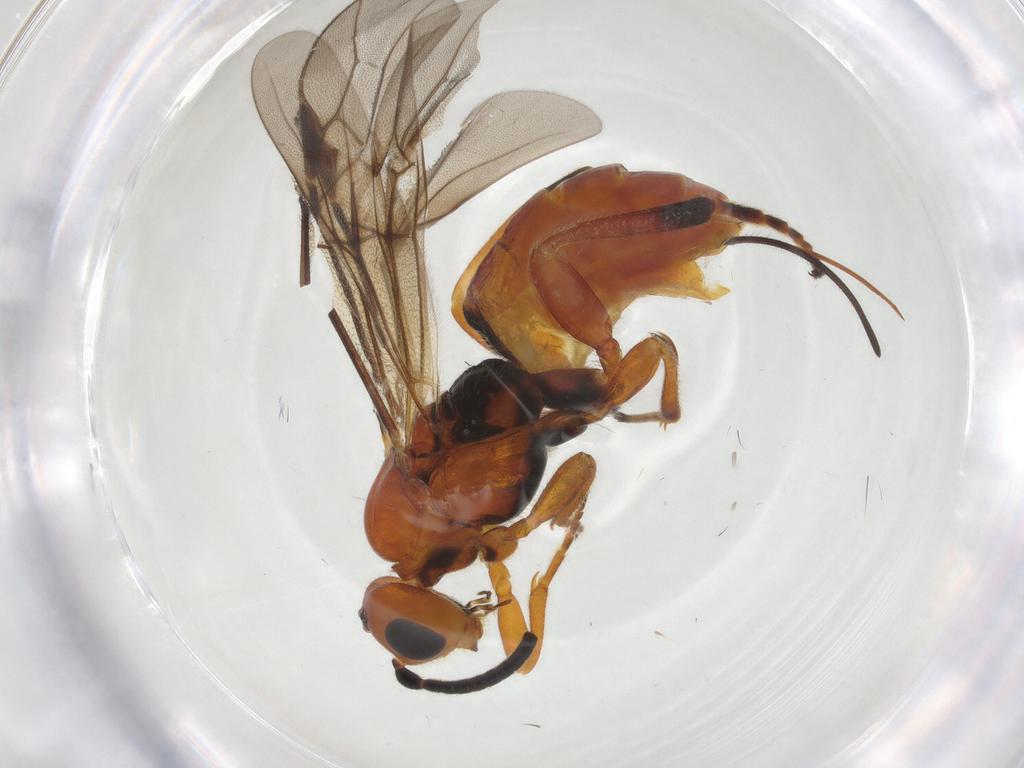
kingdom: Animalia
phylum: Arthropoda
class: Insecta
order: Hymenoptera
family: Braconidae
